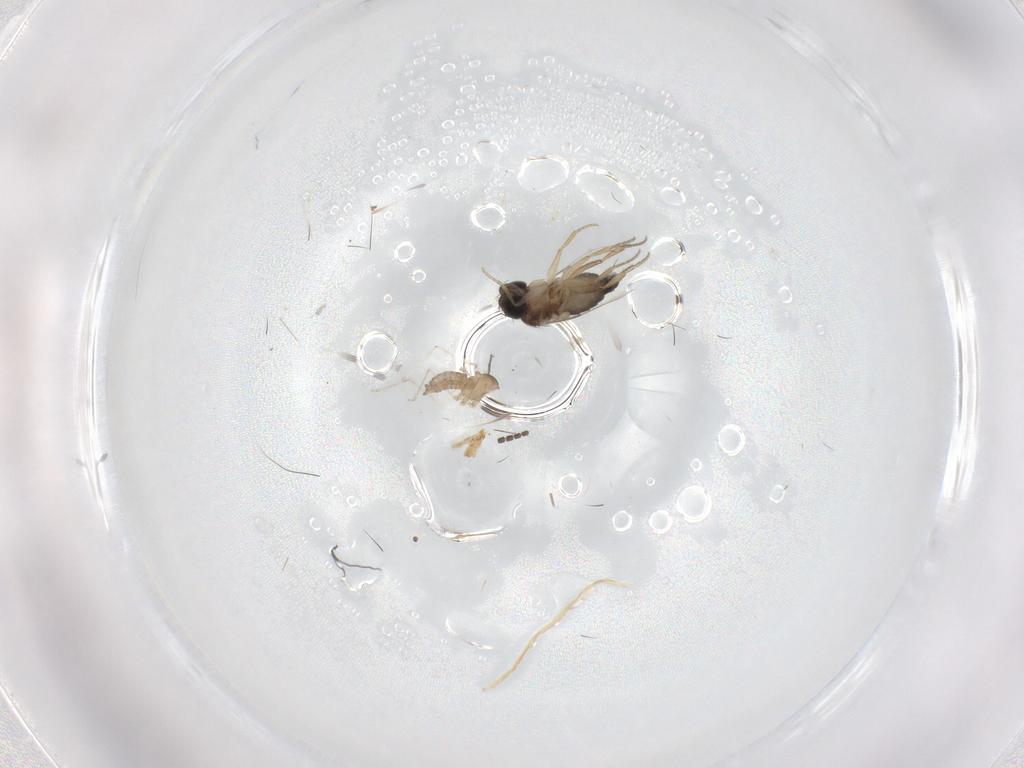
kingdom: Animalia
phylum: Arthropoda
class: Insecta
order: Diptera
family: Cecidomyiidae
